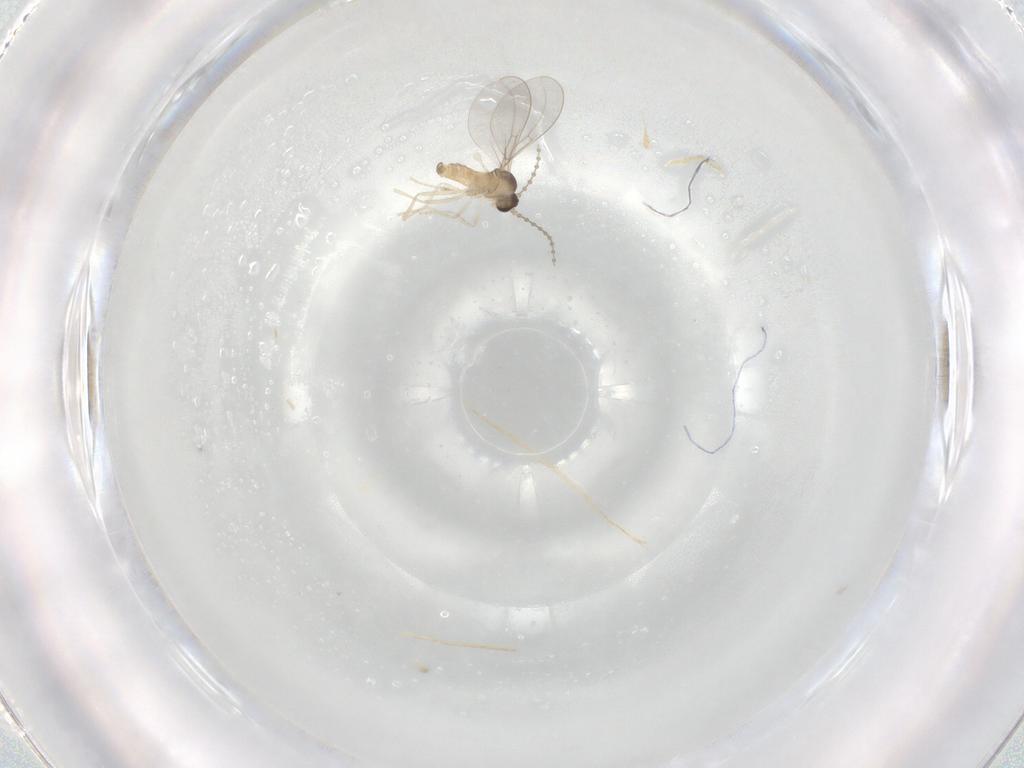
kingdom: Animalia
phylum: Arthropoda
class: Insecta
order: Diptera
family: Cecidomyiidae
